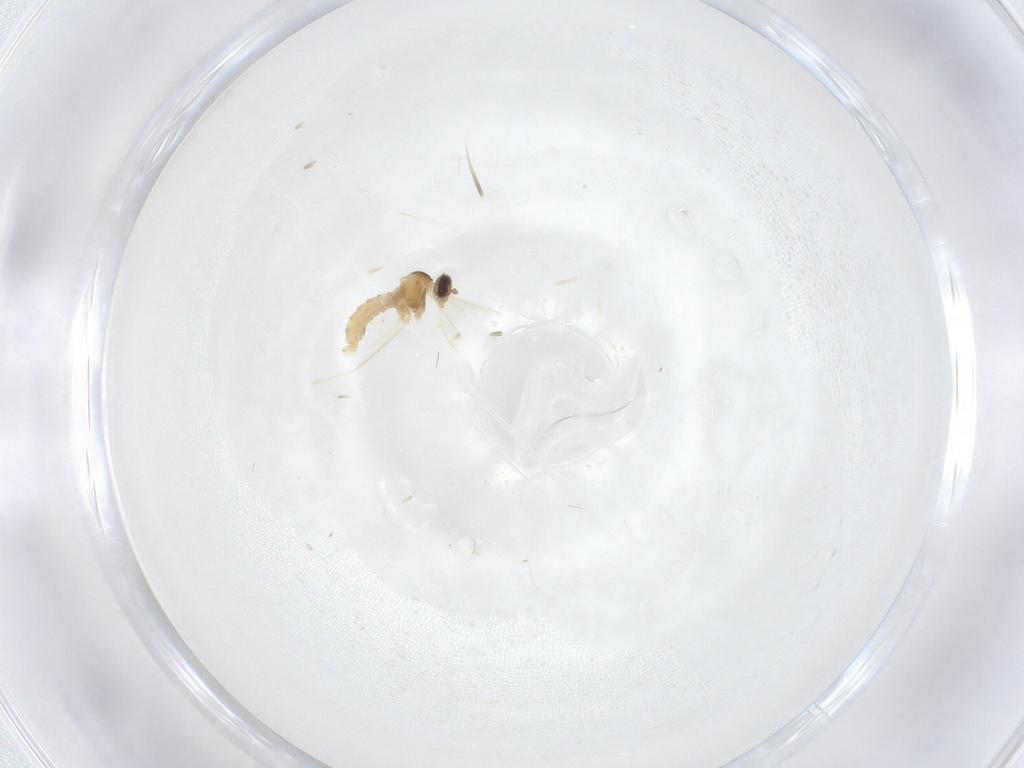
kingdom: Animalia
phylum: Arthropoda
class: Insecta
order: Diptera
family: Cecidomyiidae
